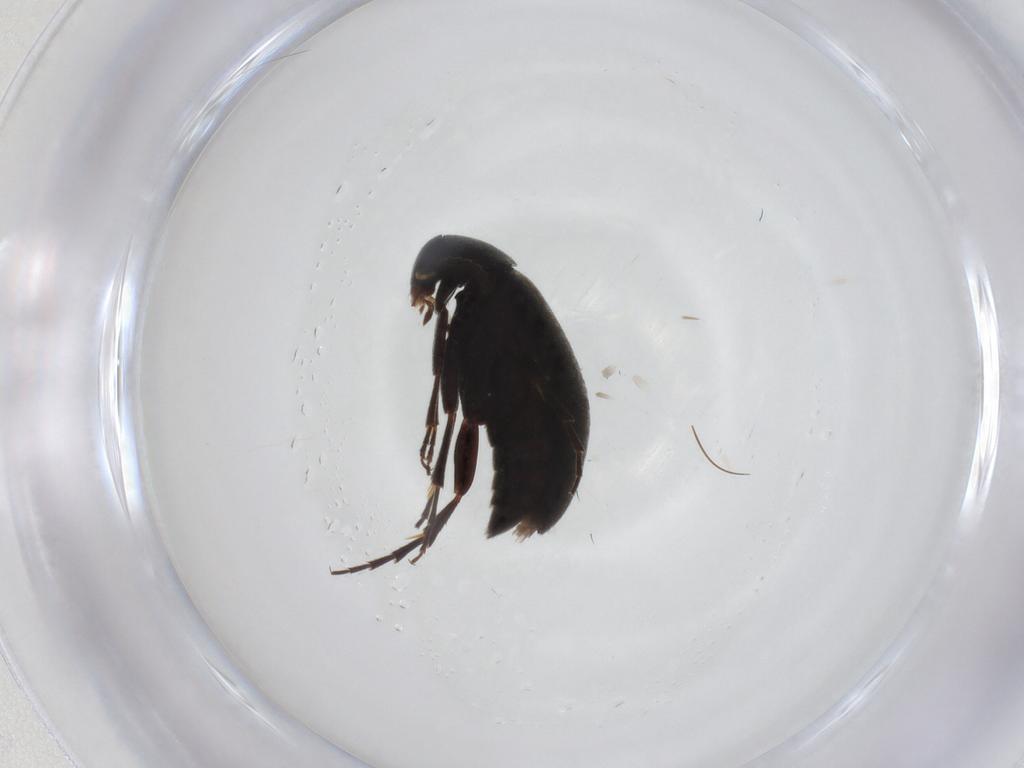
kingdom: Animalia
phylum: Arthropoda
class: Insecta
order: Coleoptera
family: Scraptiidae
